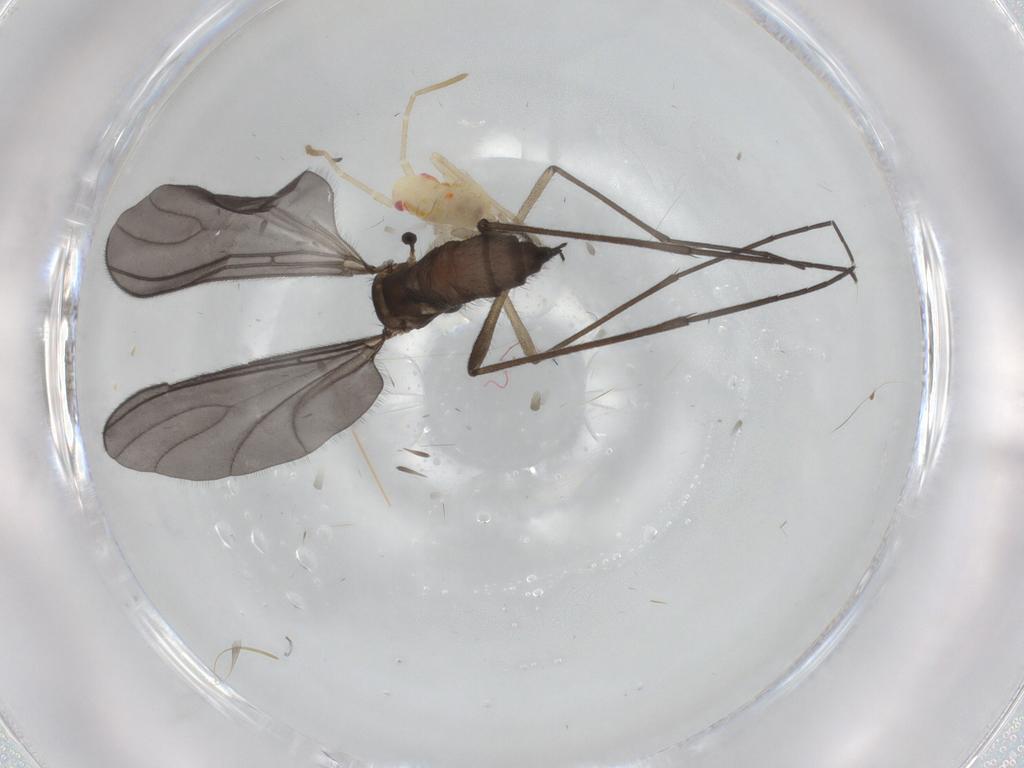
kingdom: Animalia
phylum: Arthropoda
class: Insecta
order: Diptera
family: Sciaridae
